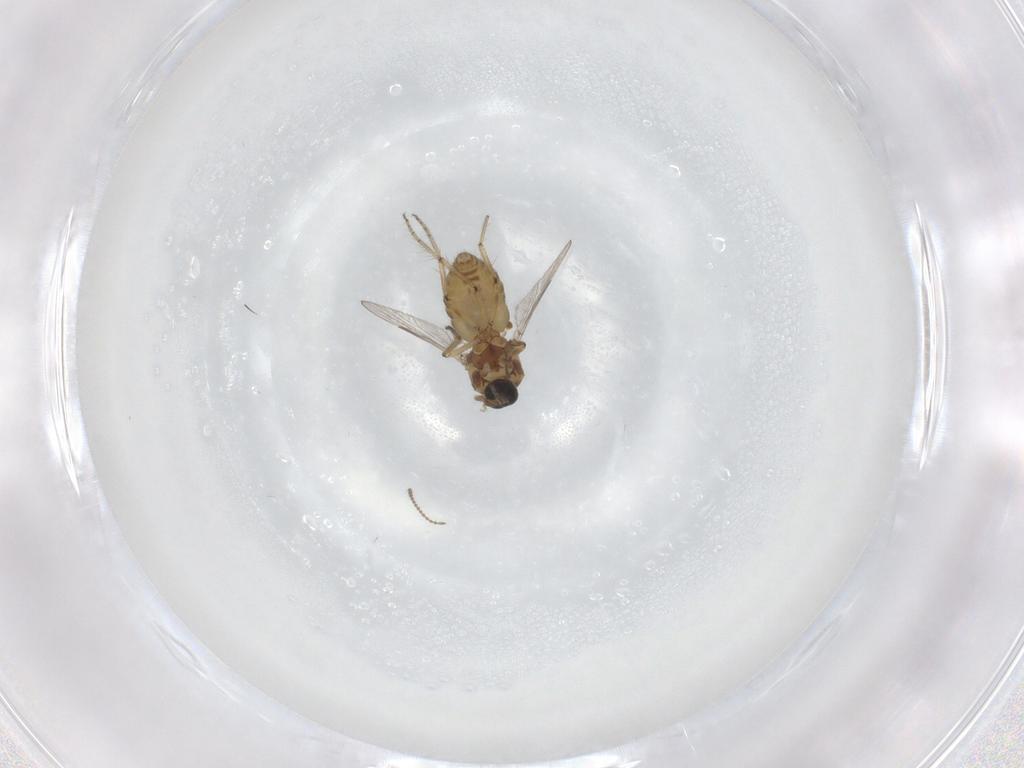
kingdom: Animalia
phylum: Arthropoda
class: Insecta
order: Diptera
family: Ceratopogonidae
